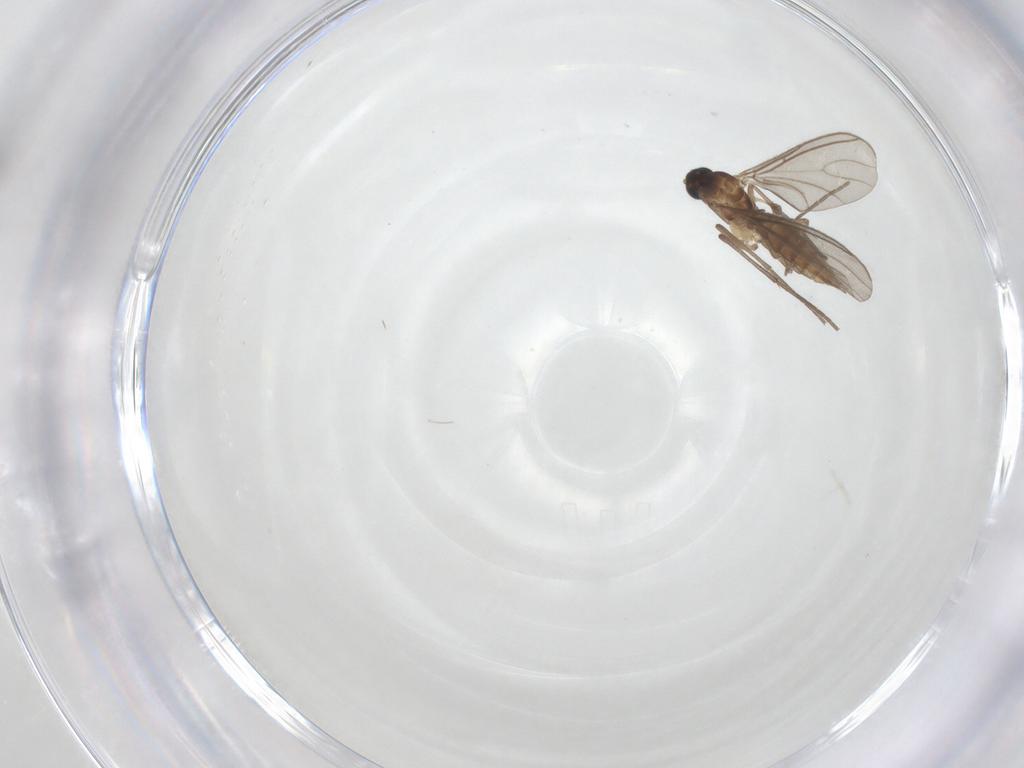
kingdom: Animalia
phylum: Arthropoda
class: Insecta
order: Diptera
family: Sciaridae
